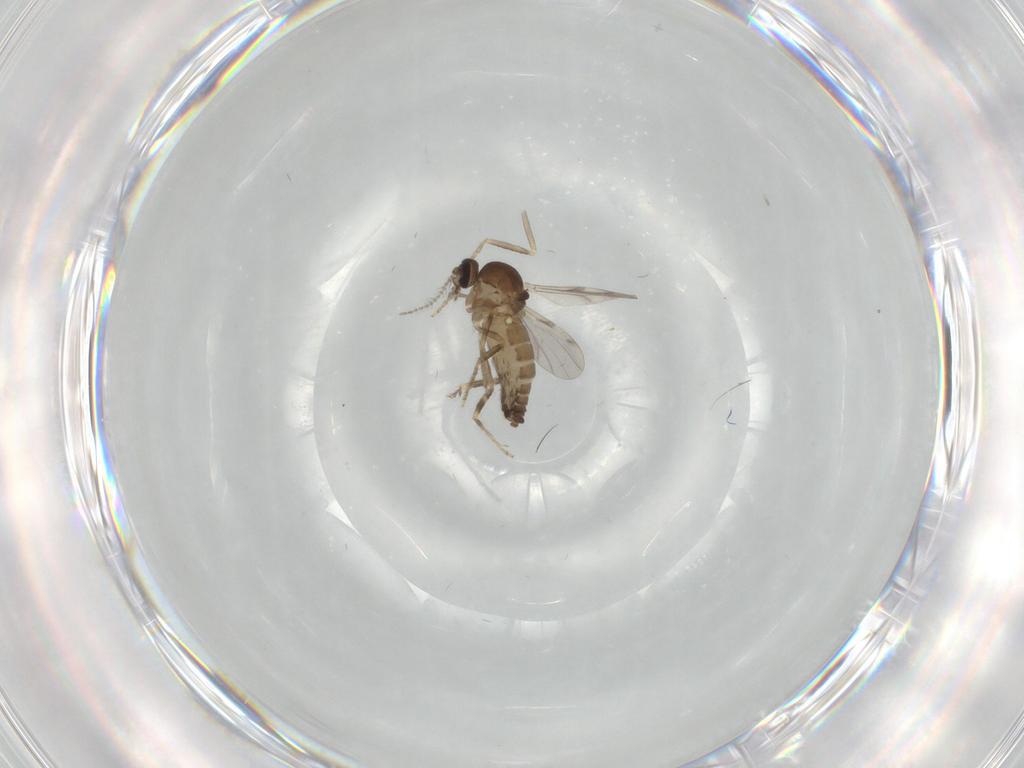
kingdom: Animalia
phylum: Arthropoda
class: Insecta
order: Diptera
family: Ceratopogonidae
